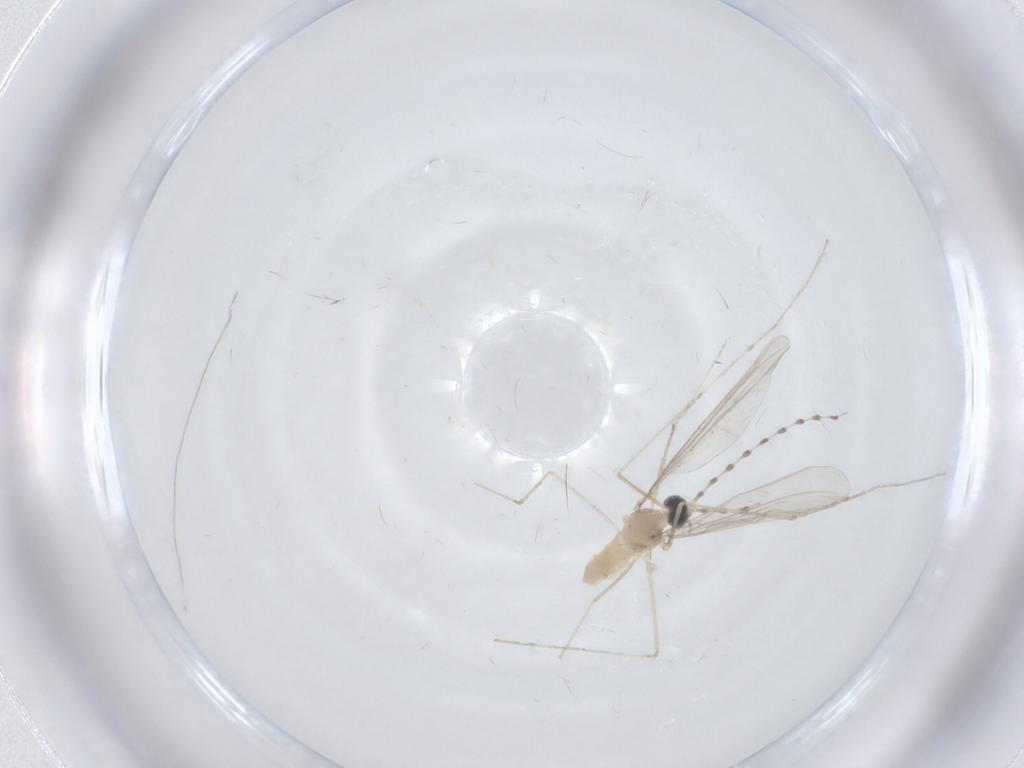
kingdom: Animalia
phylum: Arthropoda
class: Insecta
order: Diptera
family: Cecidomyiidae
